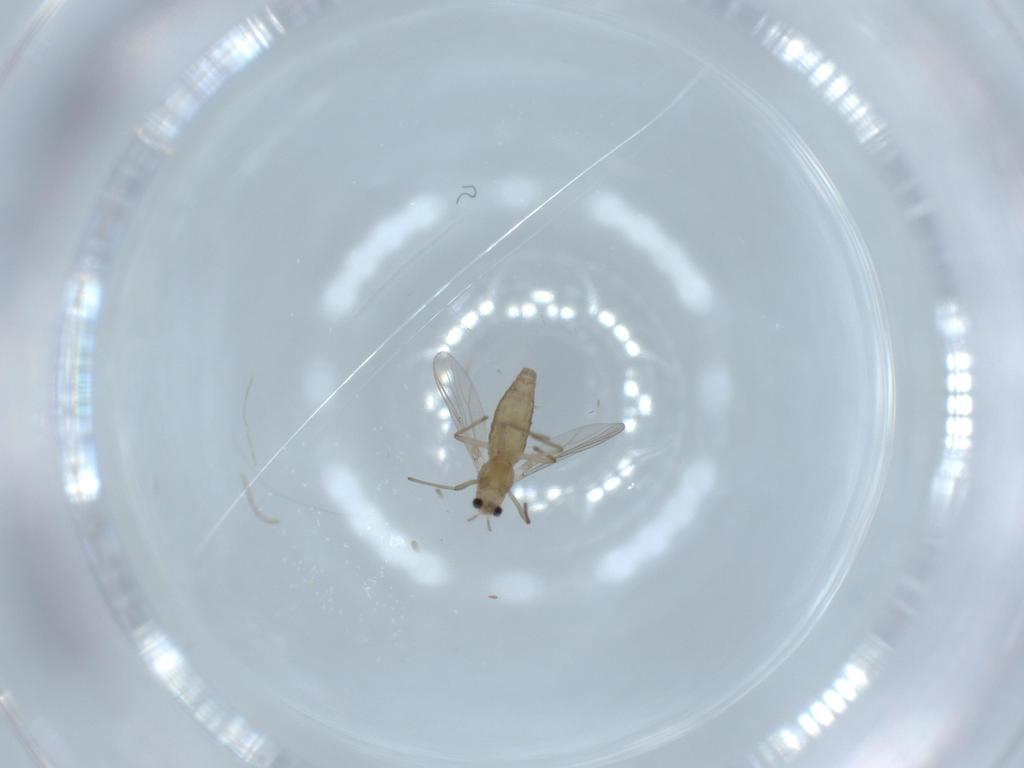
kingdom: Animalia
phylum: Arthropoda
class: Insecta
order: Diptera
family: Chironomidae
